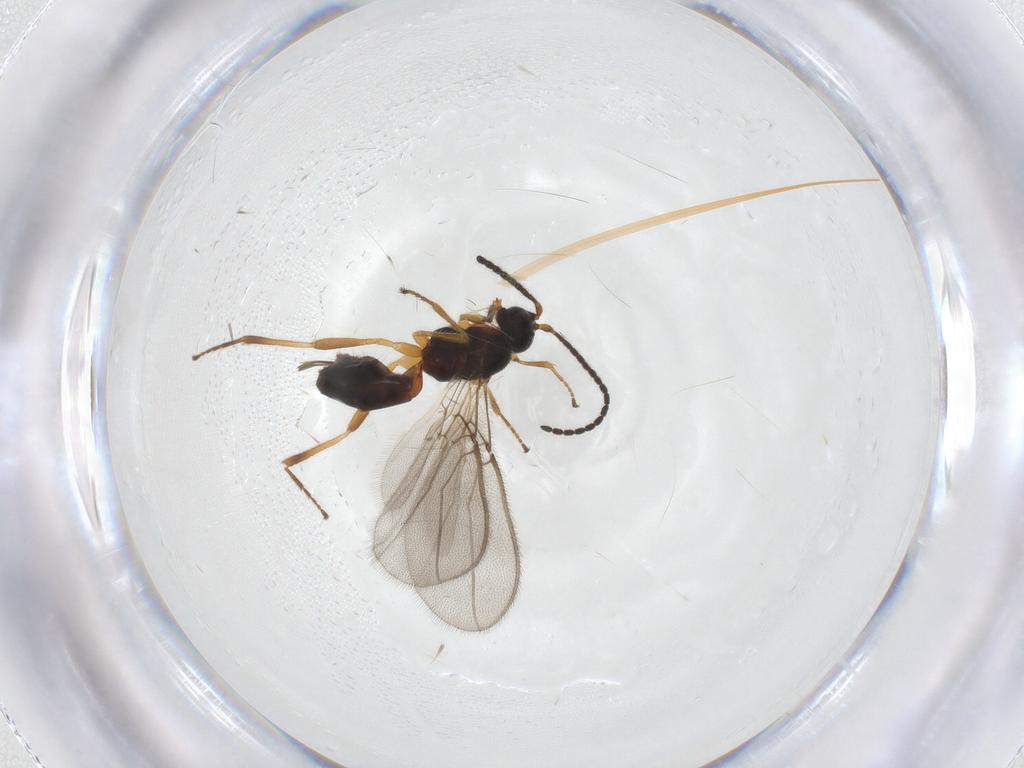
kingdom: Animalia
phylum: Arthropoda
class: Insecta
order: Hymenoptera
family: Braconidae
